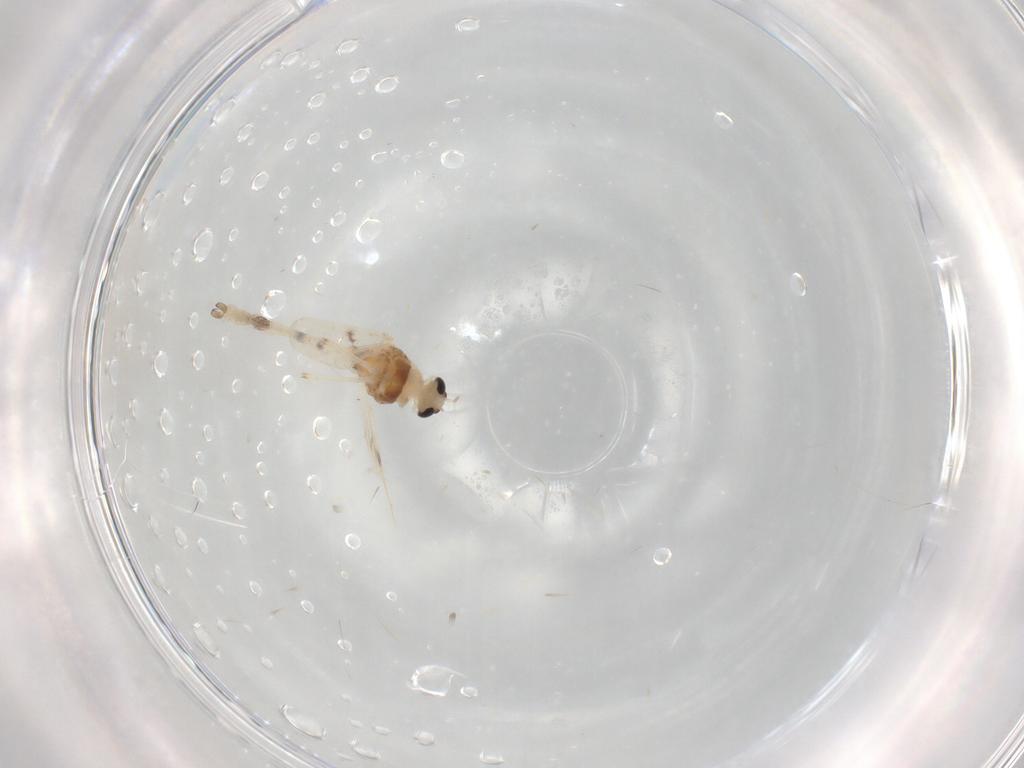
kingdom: Animalia
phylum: Arthropoda
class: Insecta
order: Diptera
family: Chironomidae
